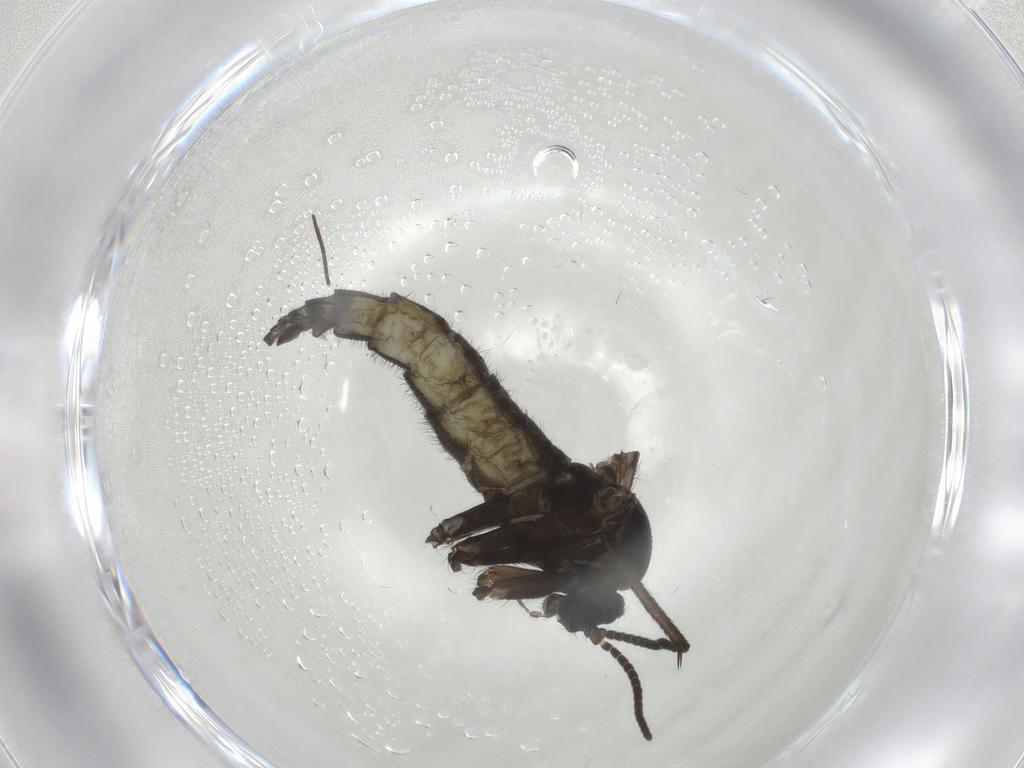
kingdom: Animalia
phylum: Arthropoda
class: Insecta
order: Diptera
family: Sciaridae
